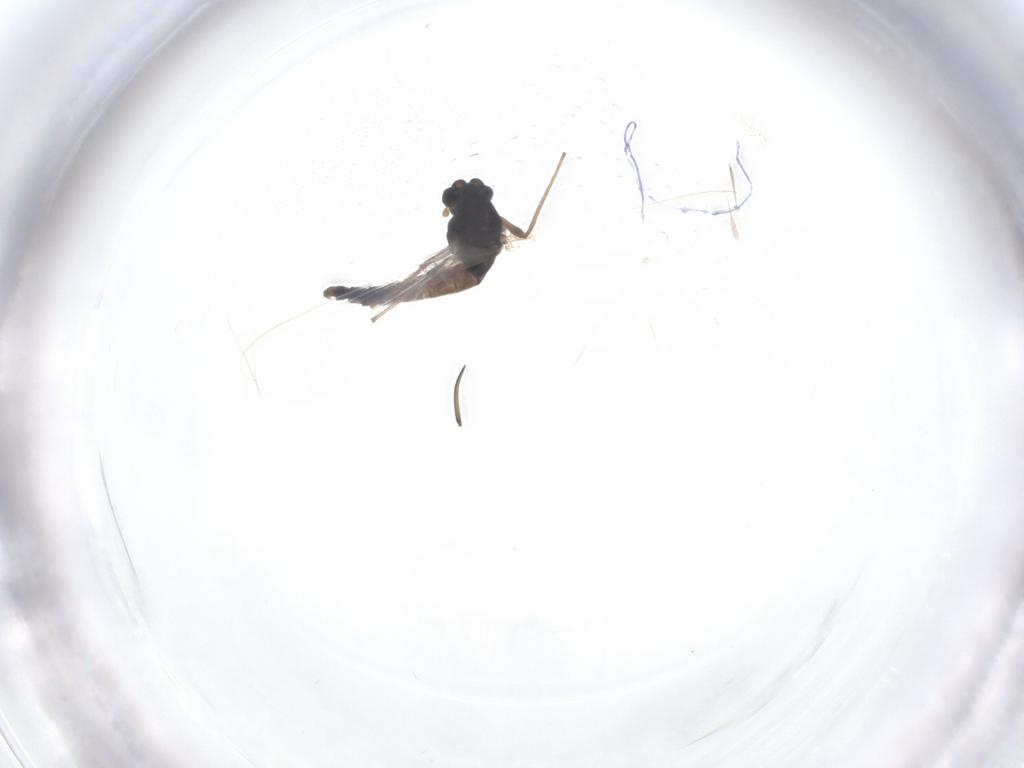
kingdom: Animalia
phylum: Arthropoda
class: Insecta
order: Diptera
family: Chironomidae
